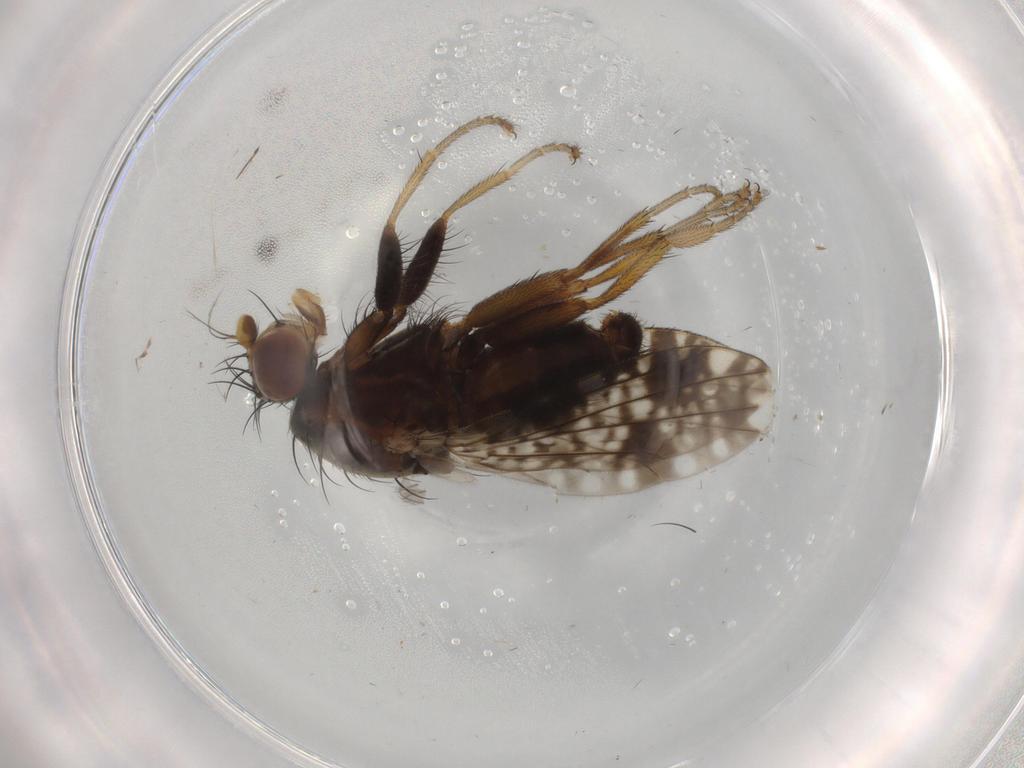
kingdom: Animalia
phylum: Arthropoda
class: Insecta
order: Diptera
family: Tephritidae
